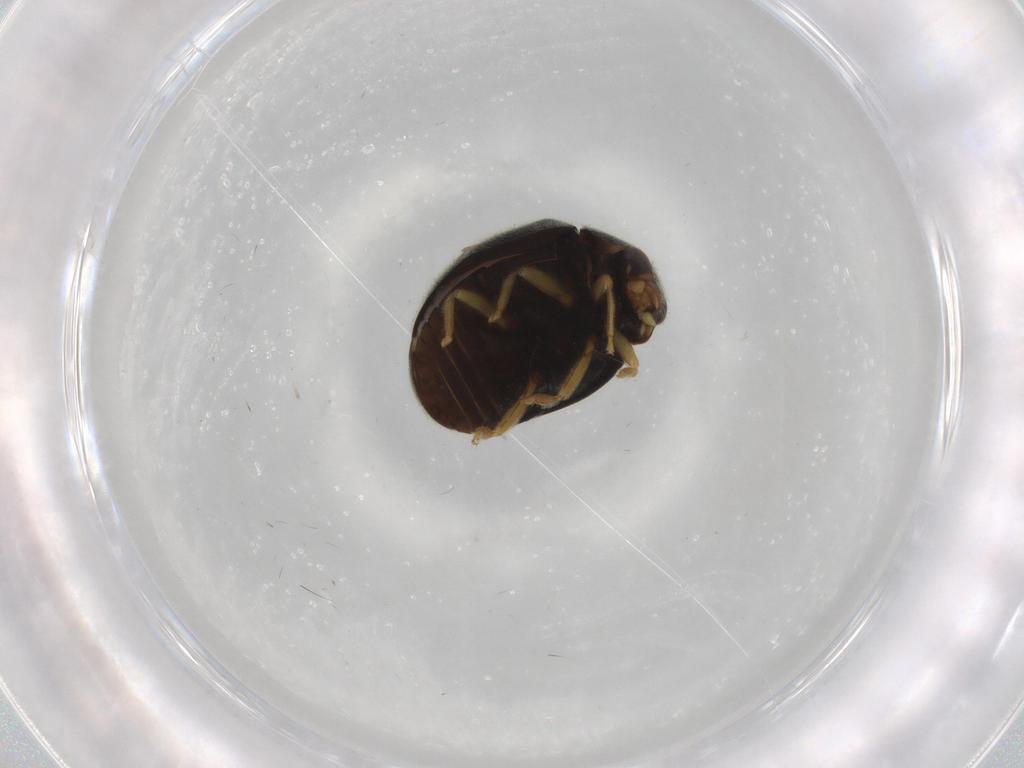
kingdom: Animalia
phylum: Arthropoda
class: Insecta
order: Coleoptera
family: Coccinellidae
